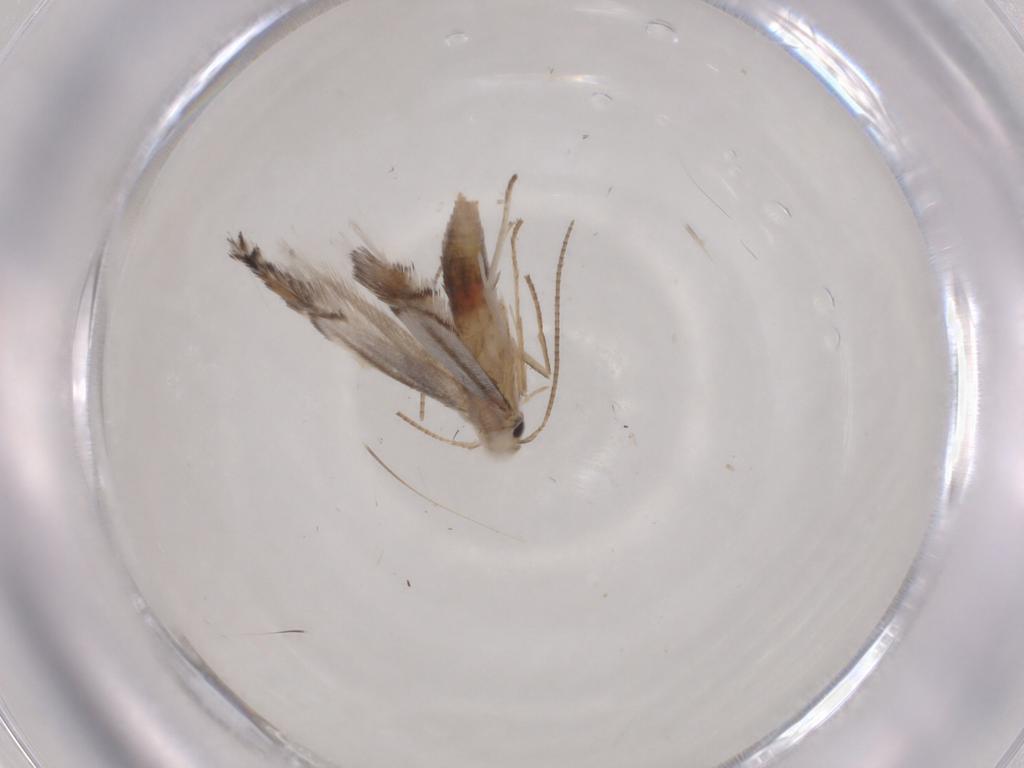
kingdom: Animalia
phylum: Arthropoda
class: Insecta
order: Lepidoptera
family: Gracillariidae
